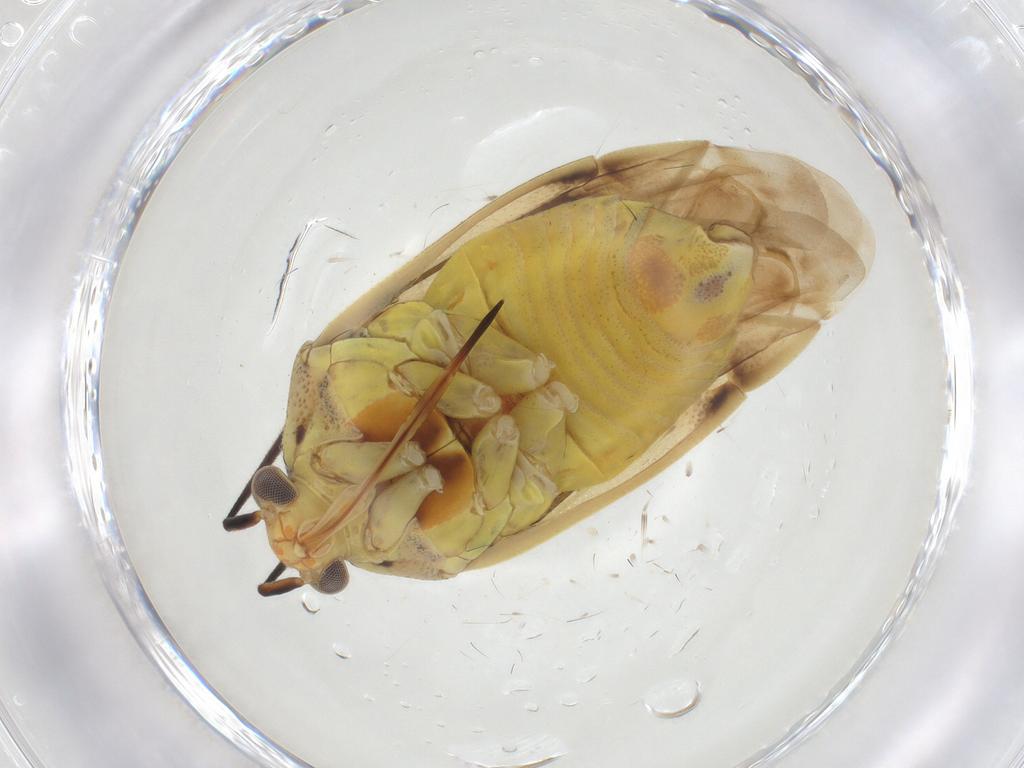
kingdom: Animalia
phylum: Arthropoda
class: Insecta
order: Hemiptera
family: Miridae
